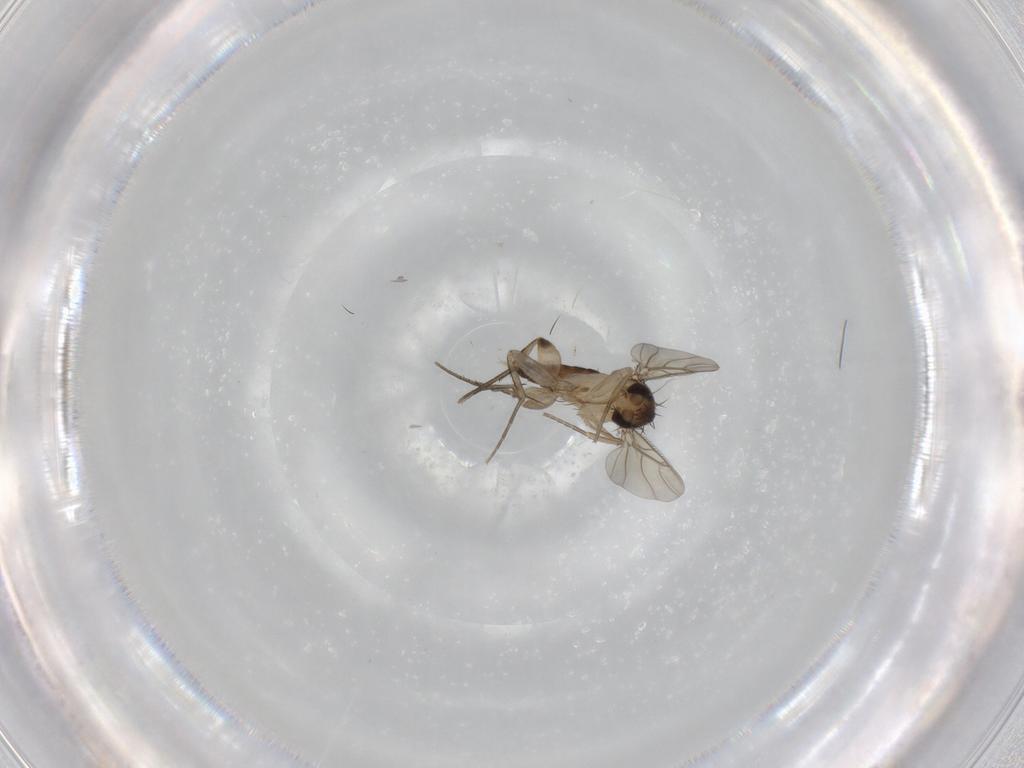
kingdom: Animalia
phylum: Arthropoda
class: Insecta
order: Diptera
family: Phoridae
